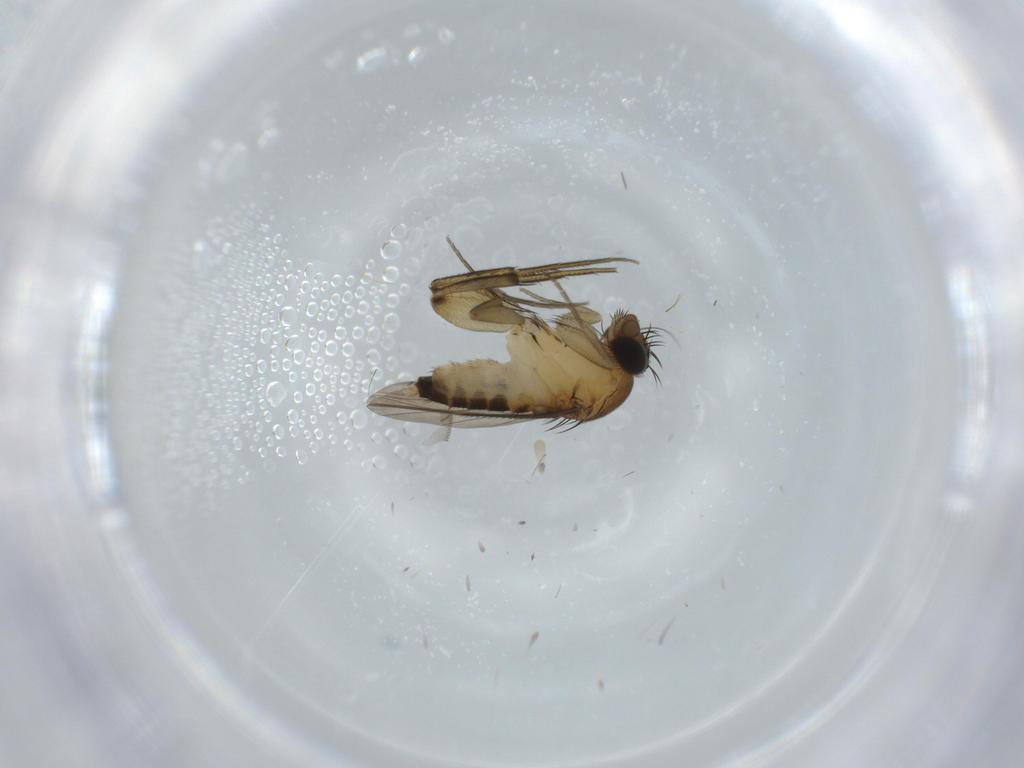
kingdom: Animalia
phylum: Arthropoda
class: Insecta
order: Diptera
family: Phoridae
